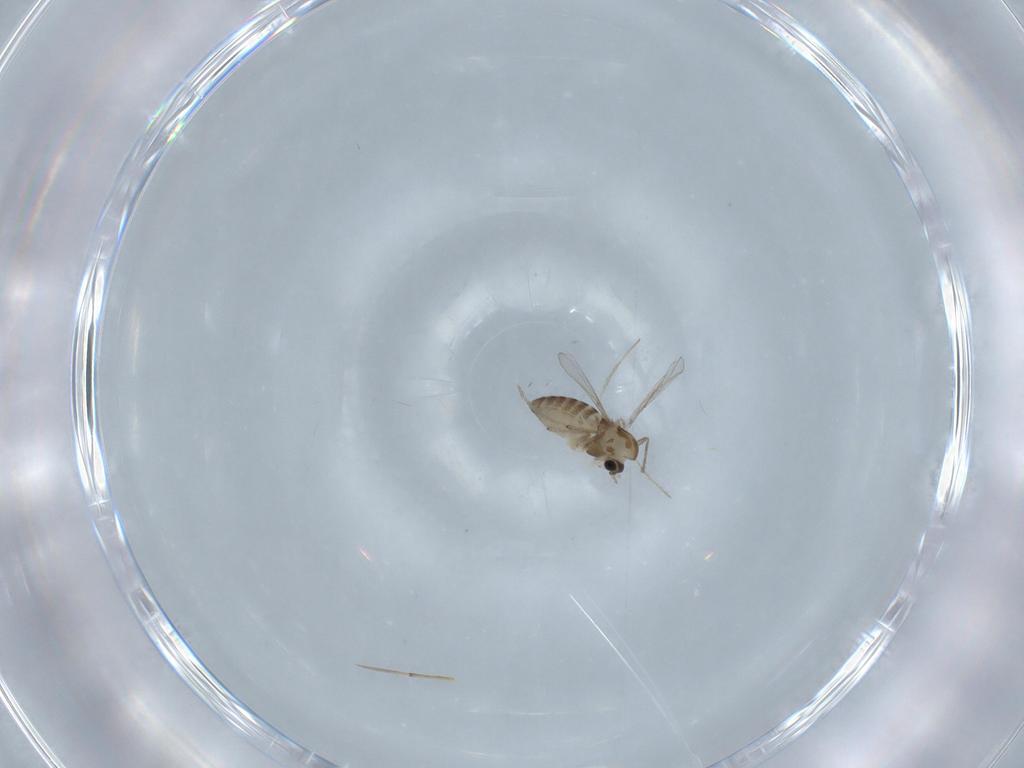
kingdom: Animalia
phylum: Arthropoda
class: Insecta
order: Diptera
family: Chironomidae
